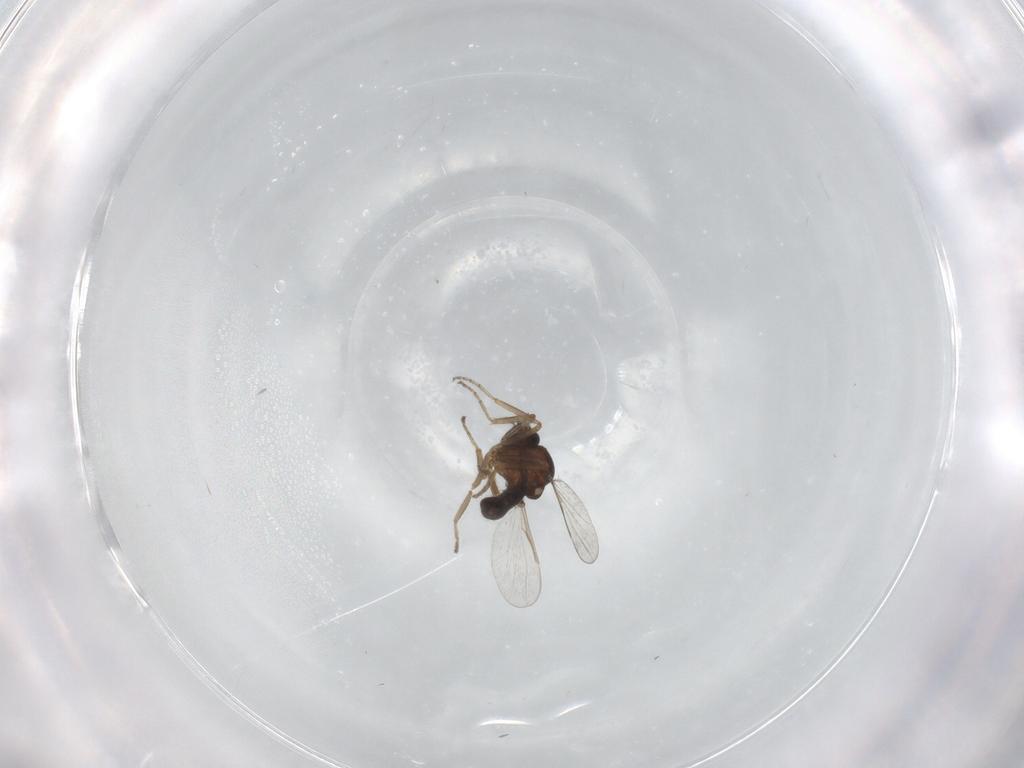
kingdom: Animalia
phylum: Arthropoda
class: Insecta
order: Diptera
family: Ceratopogonidae
